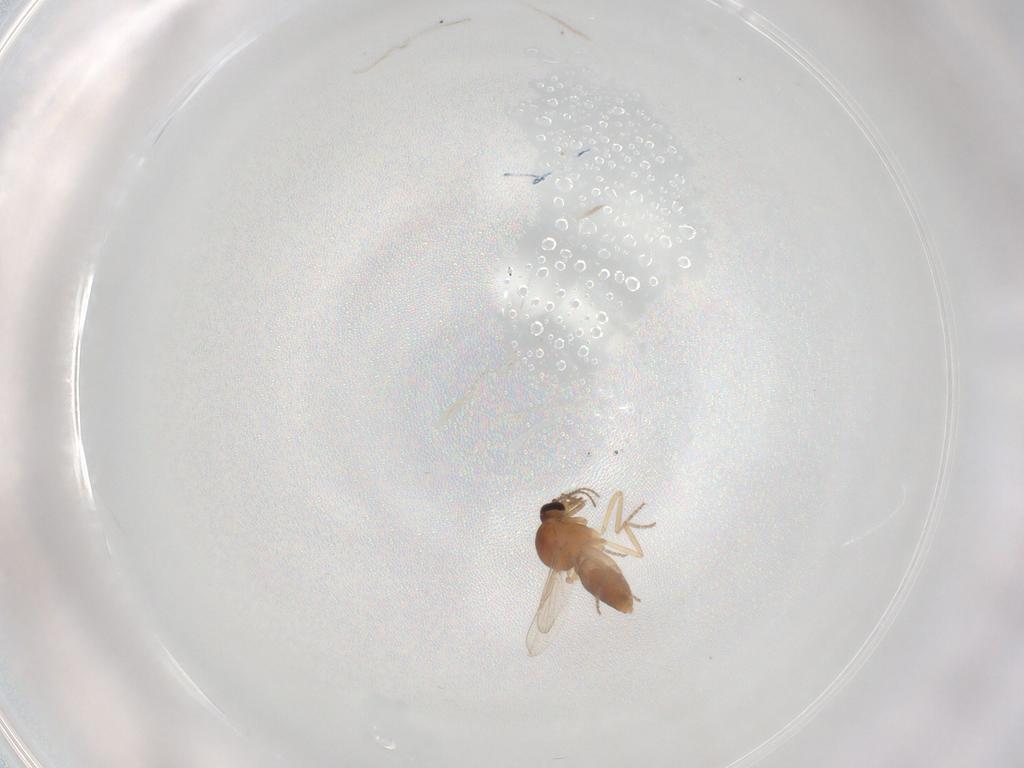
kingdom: Animalia
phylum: Arthropoda
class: Insecta
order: Diptera
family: Ceratopogonidae
